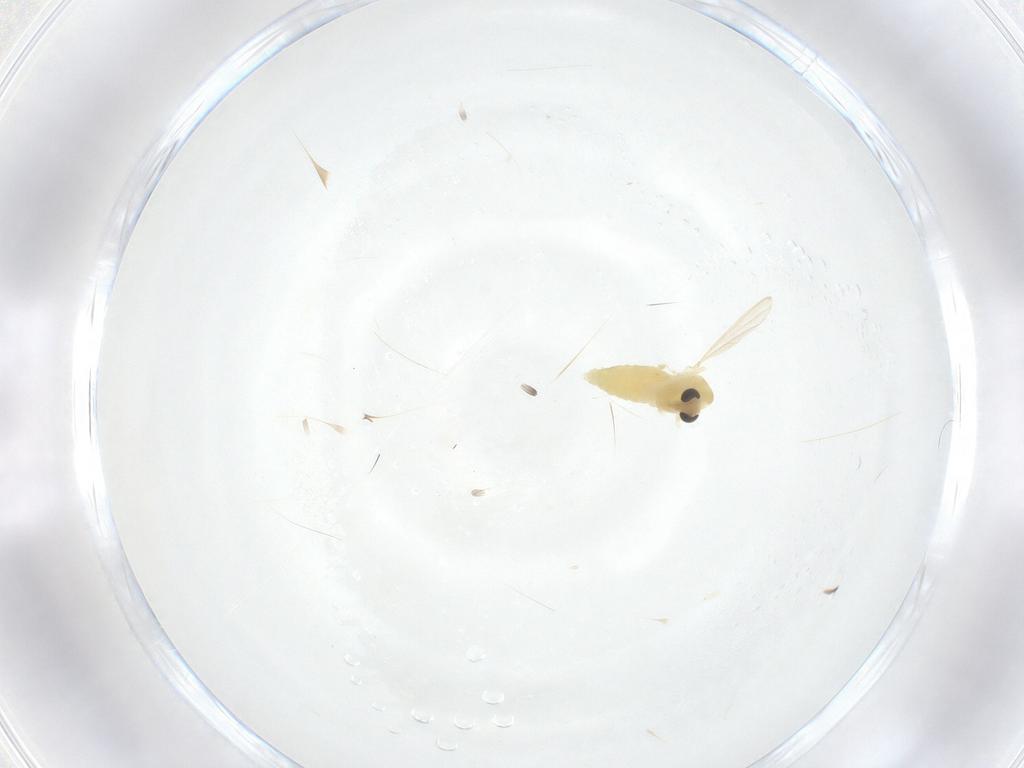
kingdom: Animalia
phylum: Arthropoda
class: Insecta
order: Diptera
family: Chironomidae
